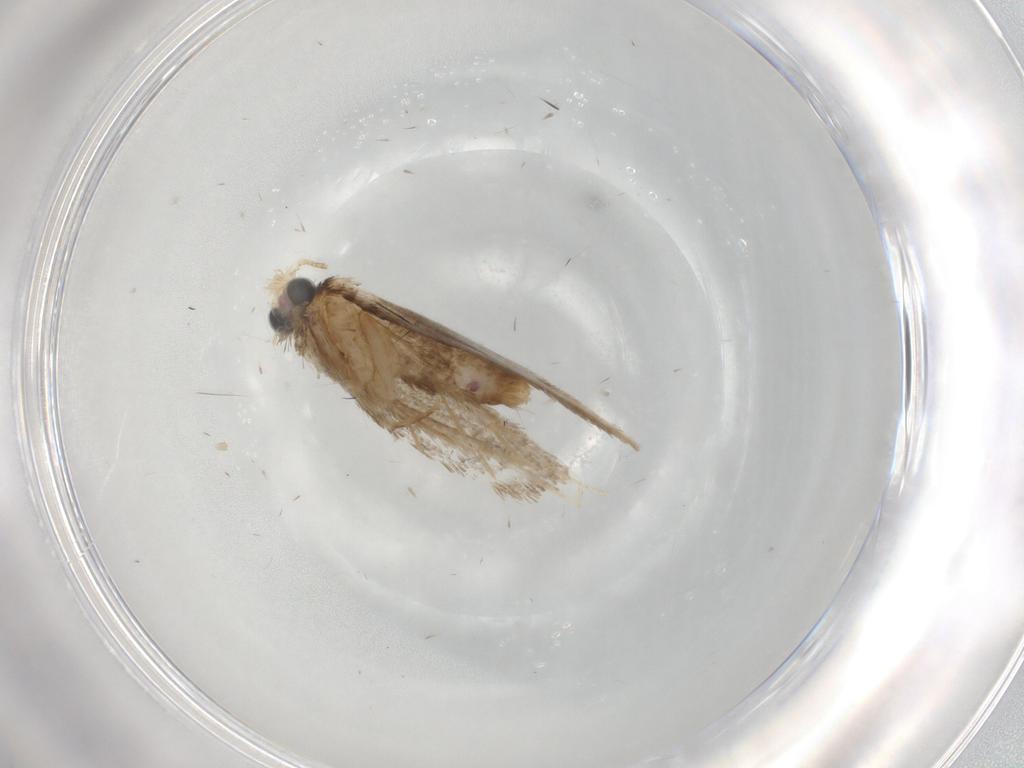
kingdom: Animalia
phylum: Arthropoda
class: Insecta
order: Lepidoptera
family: Psychidae
